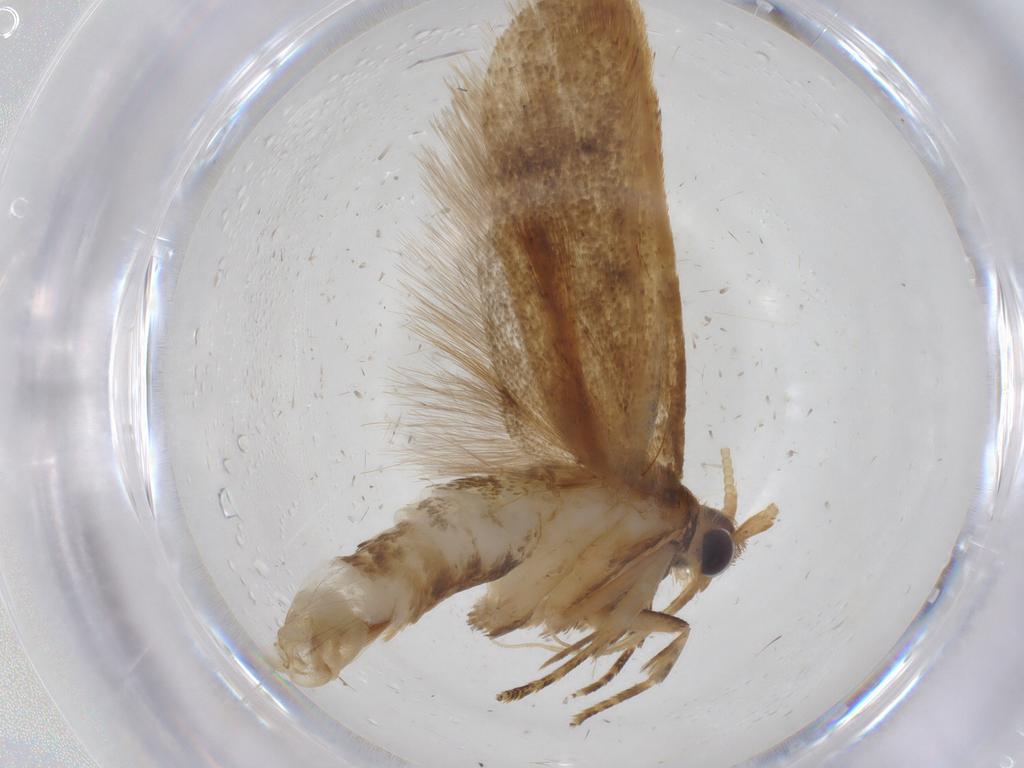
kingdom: Animalia
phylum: Arthropoda
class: Insecta
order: Lepidoptera
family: Lecithoceridae
